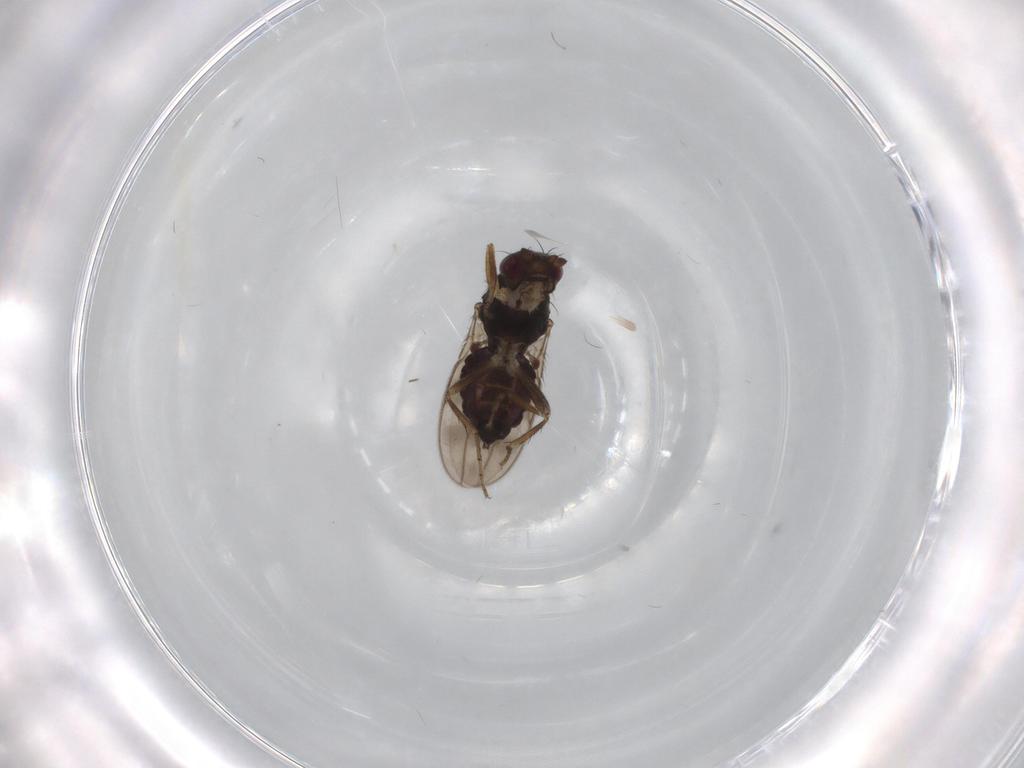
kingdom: Animalia
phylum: Arthropoda
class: Insecta
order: Diptera
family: Sphaeroceridae
